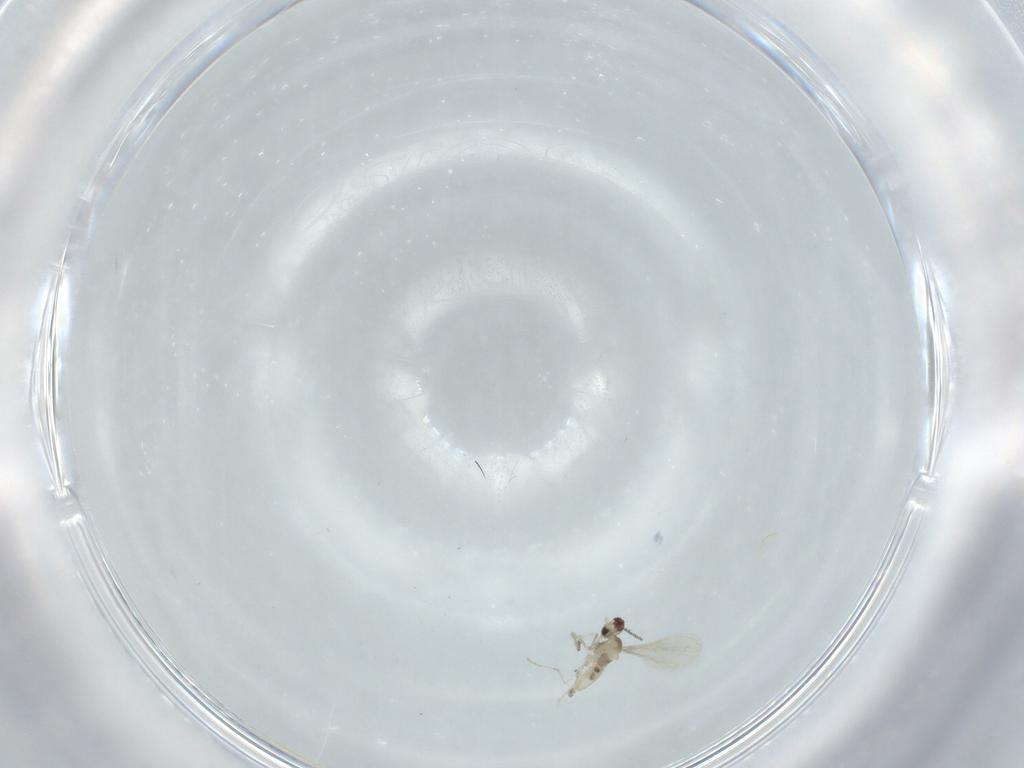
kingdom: Animalia
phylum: Arthropoda
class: Insecta
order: Diptera
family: Cecidomyiidae
